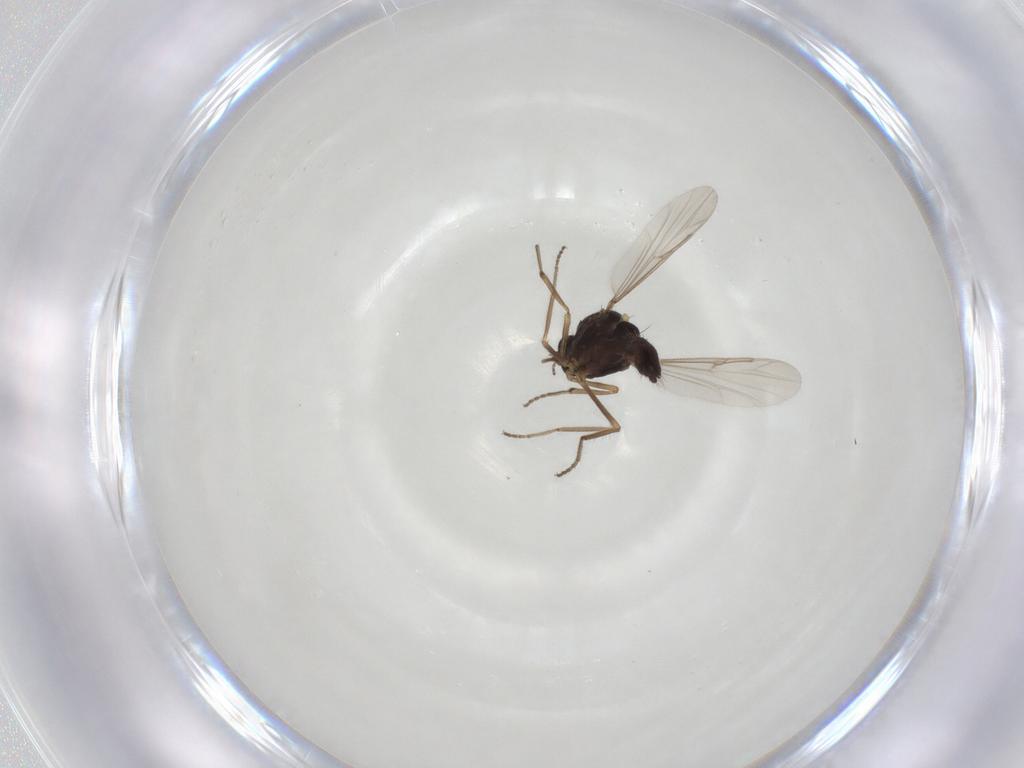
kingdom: Animalia
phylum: Arthropoda
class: Insecta
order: Diptera
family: Ceratopogonidae
